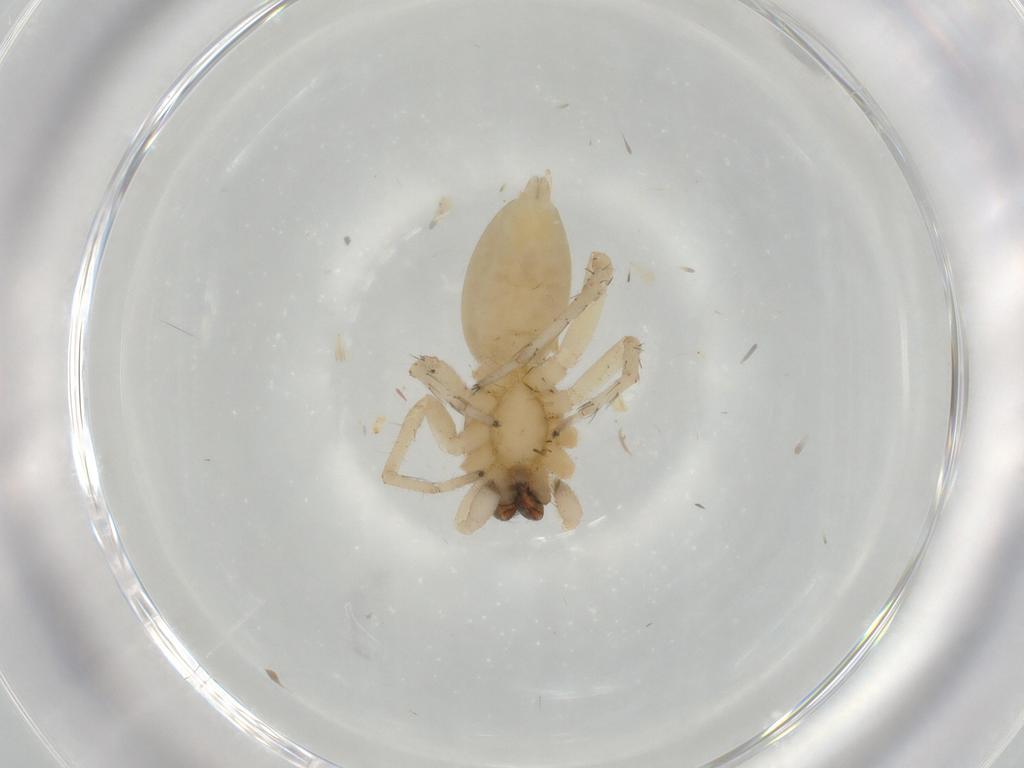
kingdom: Animalia
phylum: Arthropoda
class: Arachnida
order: Araneae
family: Anyphaenidae
